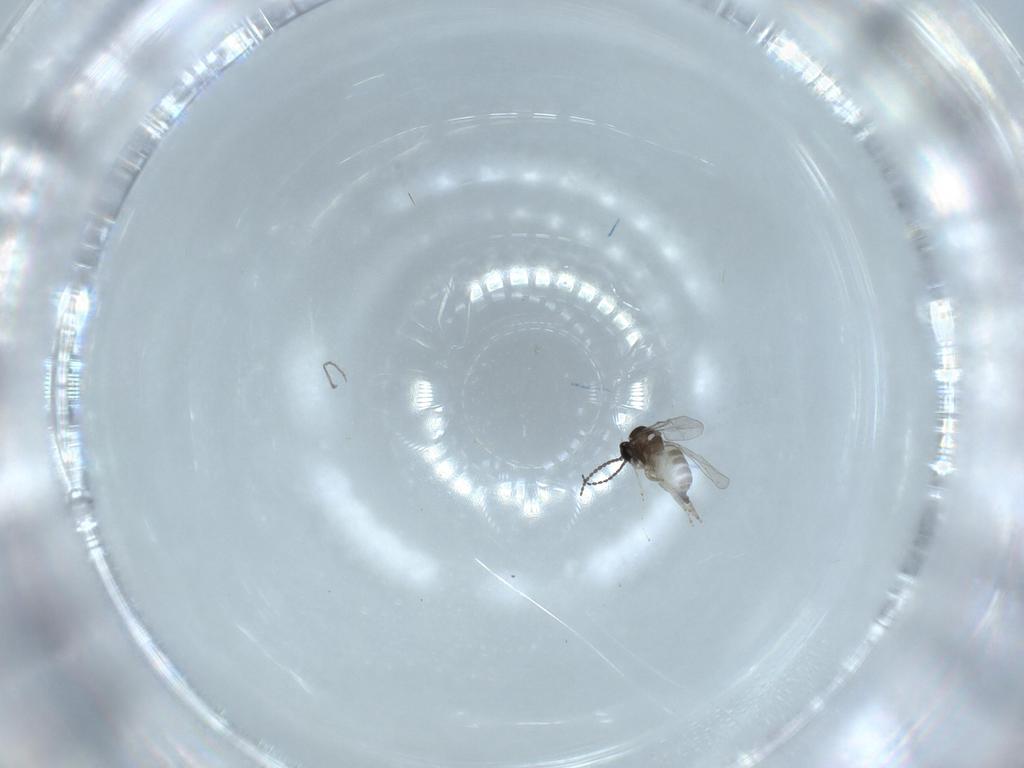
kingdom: Animalia
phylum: Arthropoda
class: Insecta
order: Diptera
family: Cecidomyiidae
